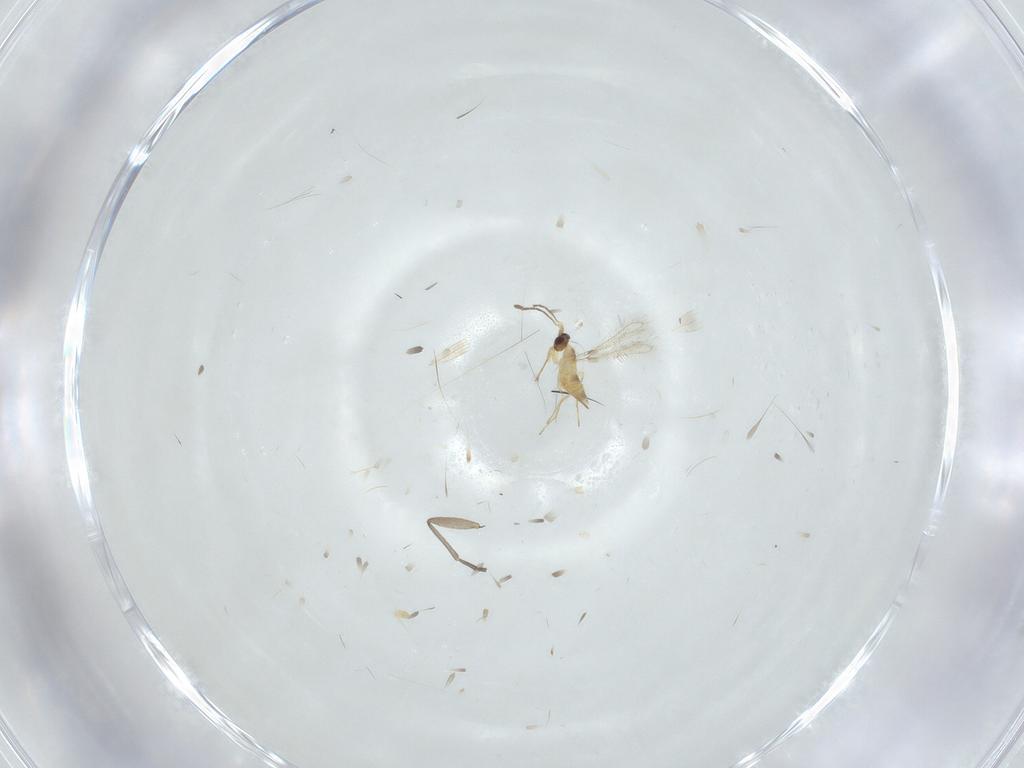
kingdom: Animalia
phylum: Arthropoda
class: Insecta
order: Hymenoptera
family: Mymaridae
